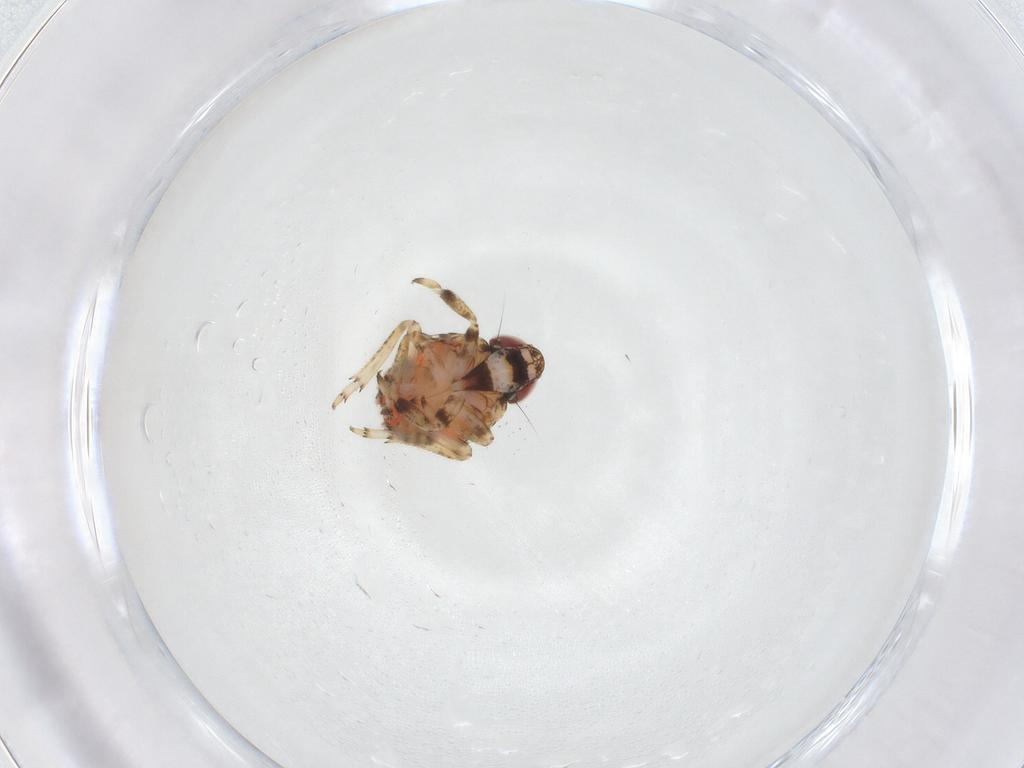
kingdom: Animalia
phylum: Arthropoda
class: Insecta
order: Hemiptera
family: Issidae
